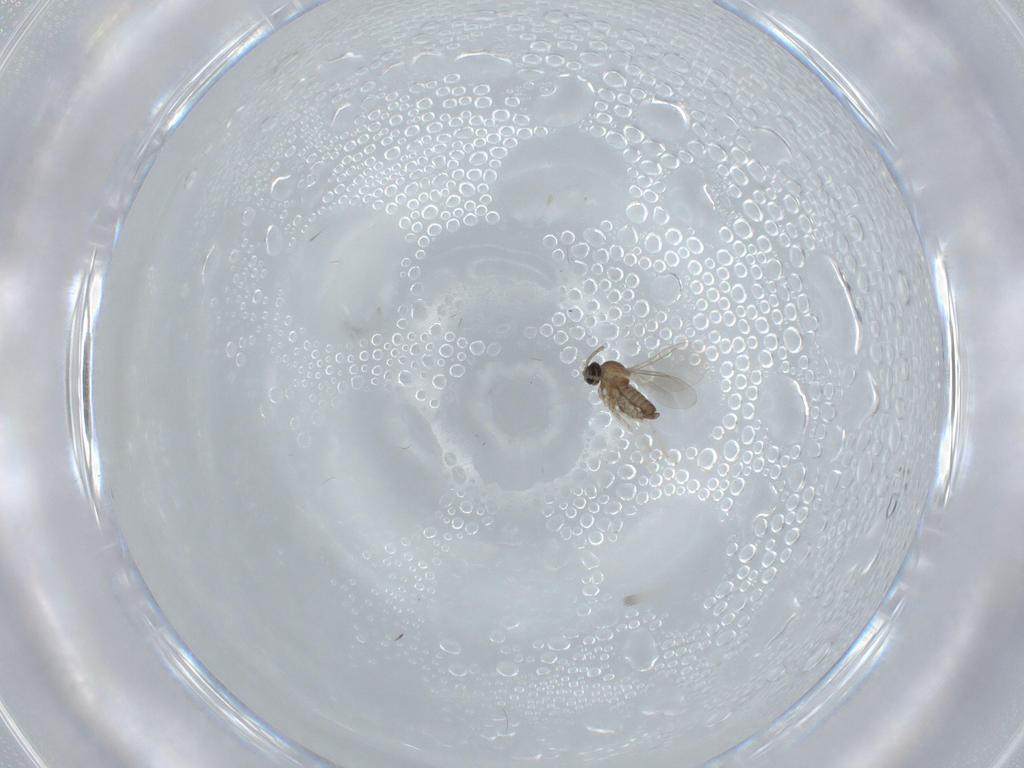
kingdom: Animalia
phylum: Arthropoda
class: Insecta
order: Diptera
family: Cecidomyiidae
